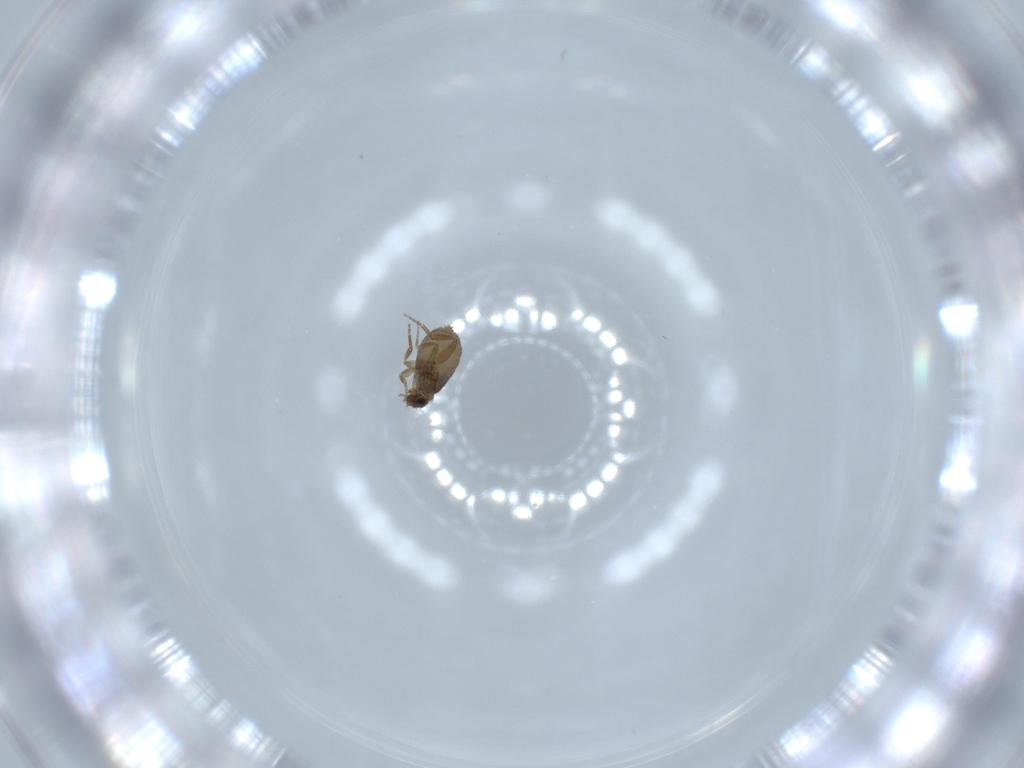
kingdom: Animalia
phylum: Arthropoda
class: Insecta
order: Diptera
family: Phoridae
